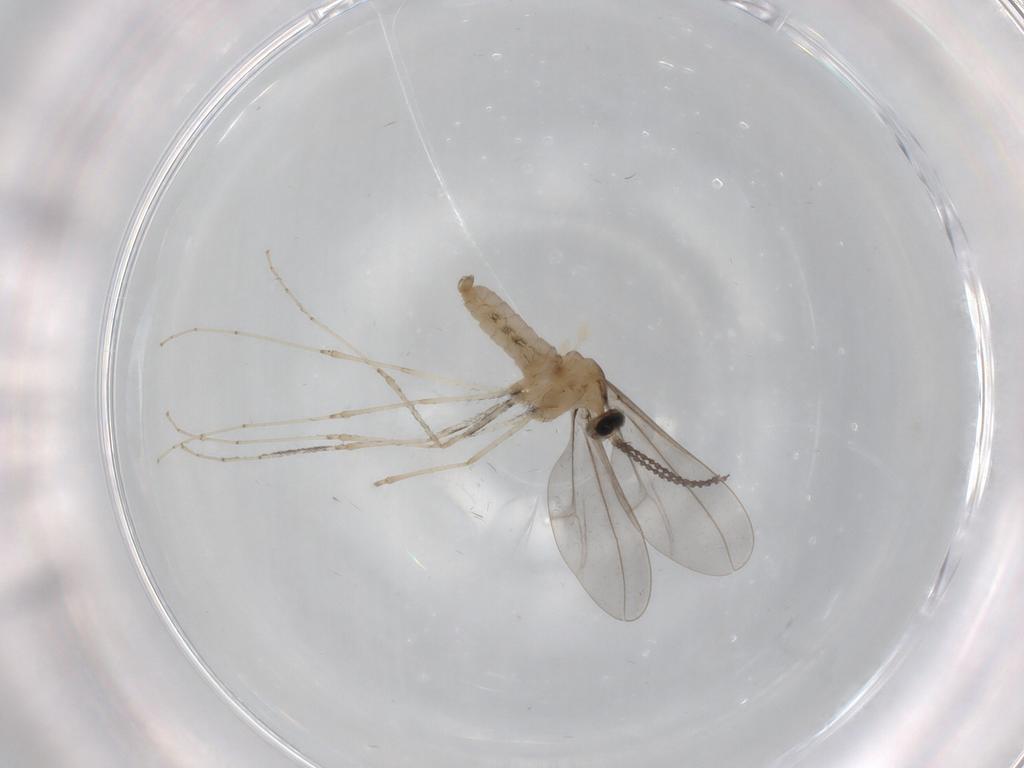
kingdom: Animalia
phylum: Arthropoda
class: Insecta
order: Diptera
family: Cecidomyiidae
